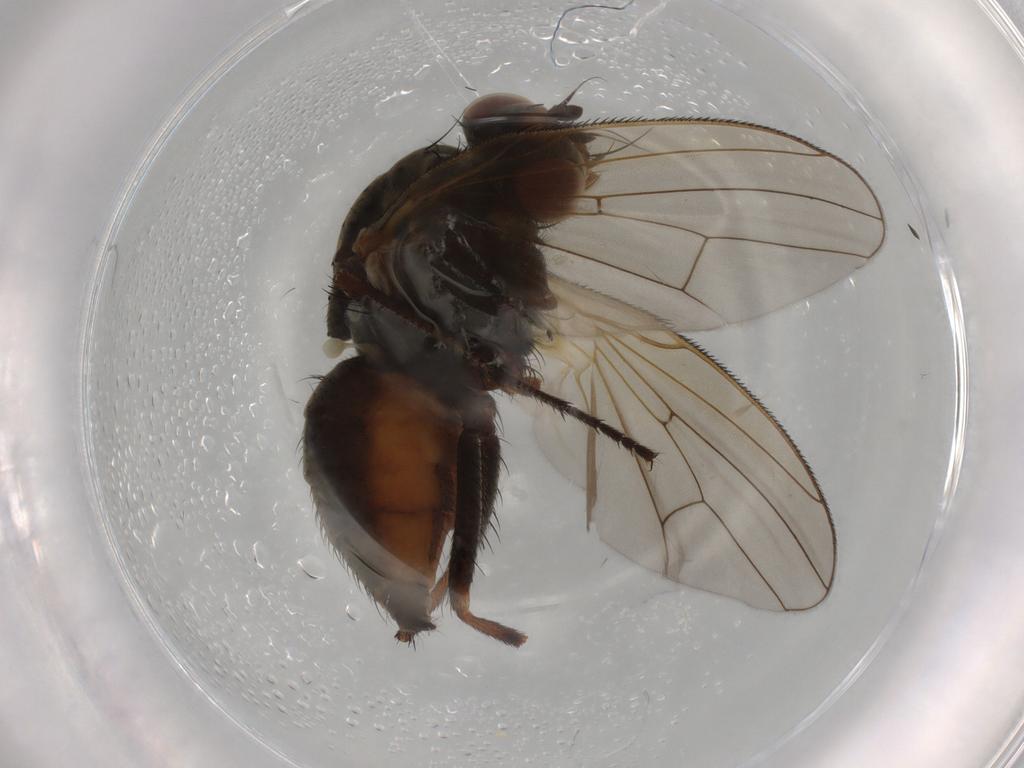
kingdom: Animalia
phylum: Arthropoda
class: Insecta
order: Diptera
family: Anthomyiidae
